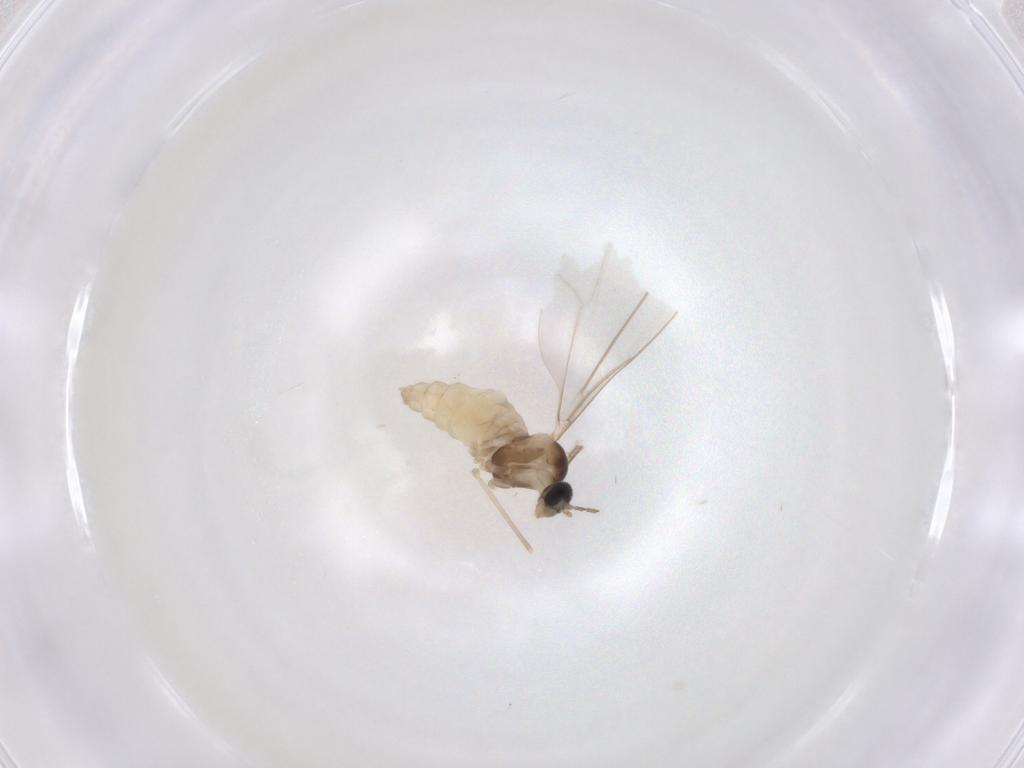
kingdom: Animalia
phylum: Arthropoda
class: Insecta
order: Diptera
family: Cecidomyiidae
